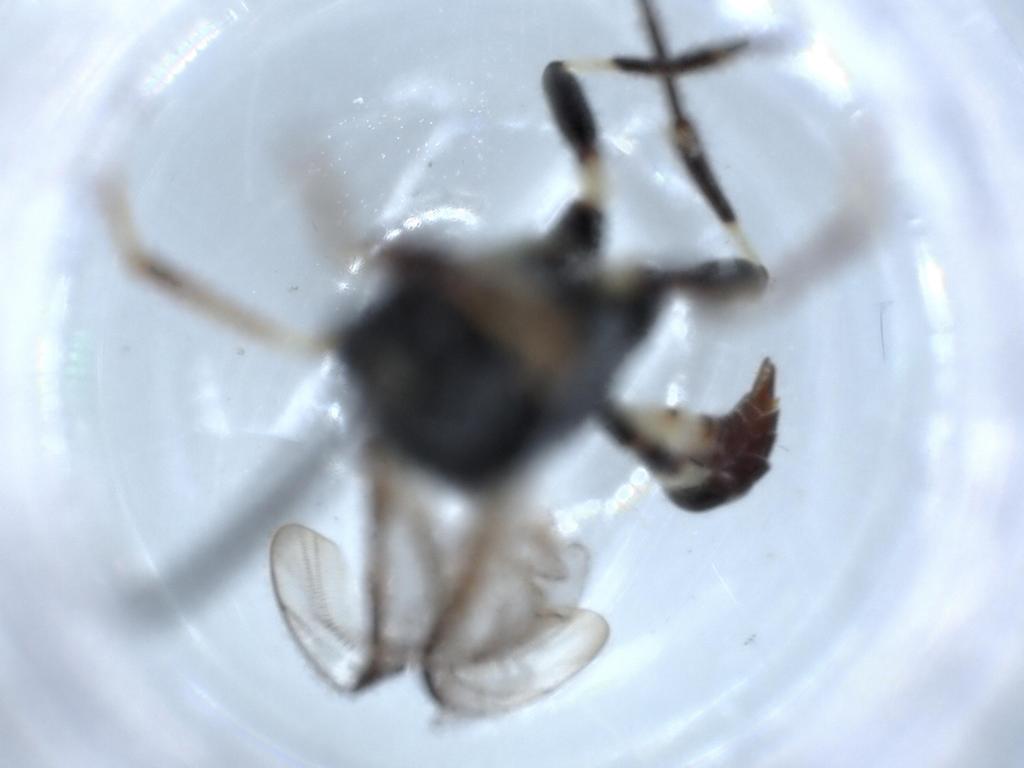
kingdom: Animalia
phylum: Arthropoda
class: Insecta
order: Hymenoptera
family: Braconidae
